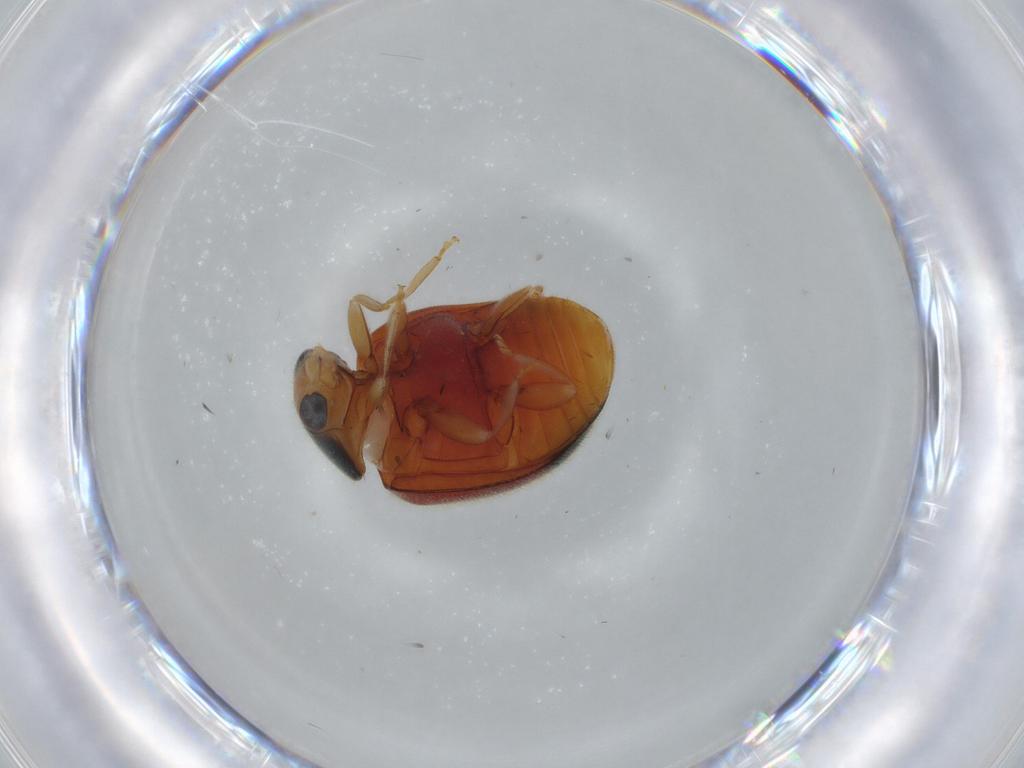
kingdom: Animalia
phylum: Arthropoda
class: Insecta
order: Coleoptera
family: Coccinellidae
